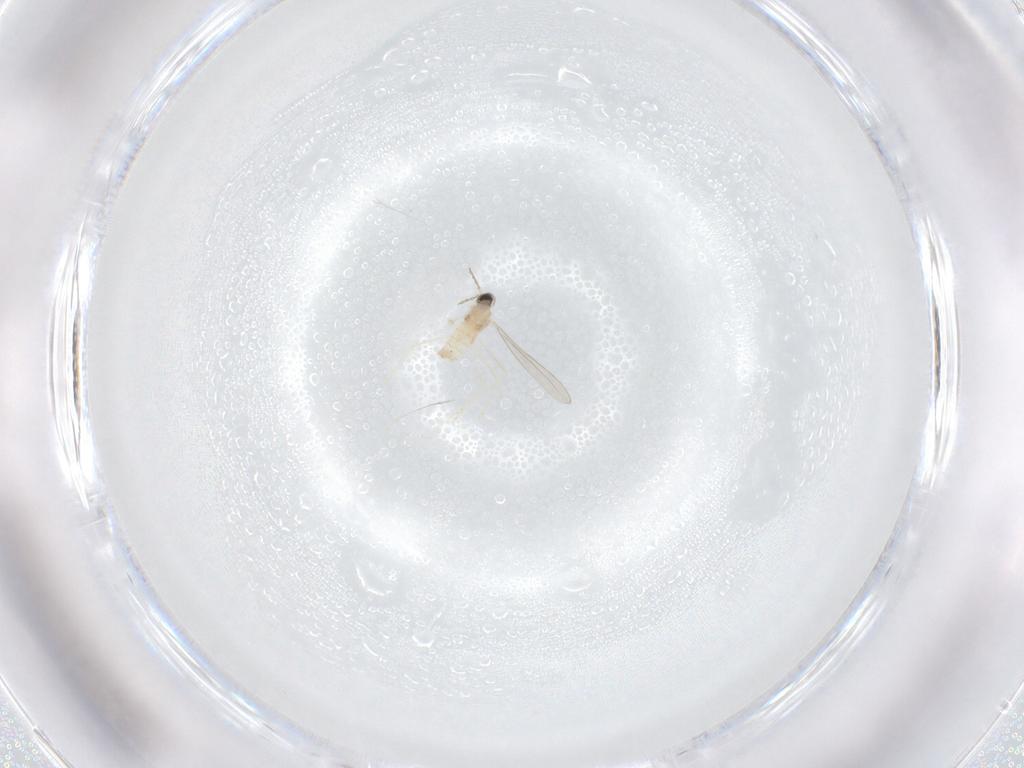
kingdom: Animalia
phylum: Arthropoda
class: Insecta
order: Diptera
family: Cecidomyiidae
